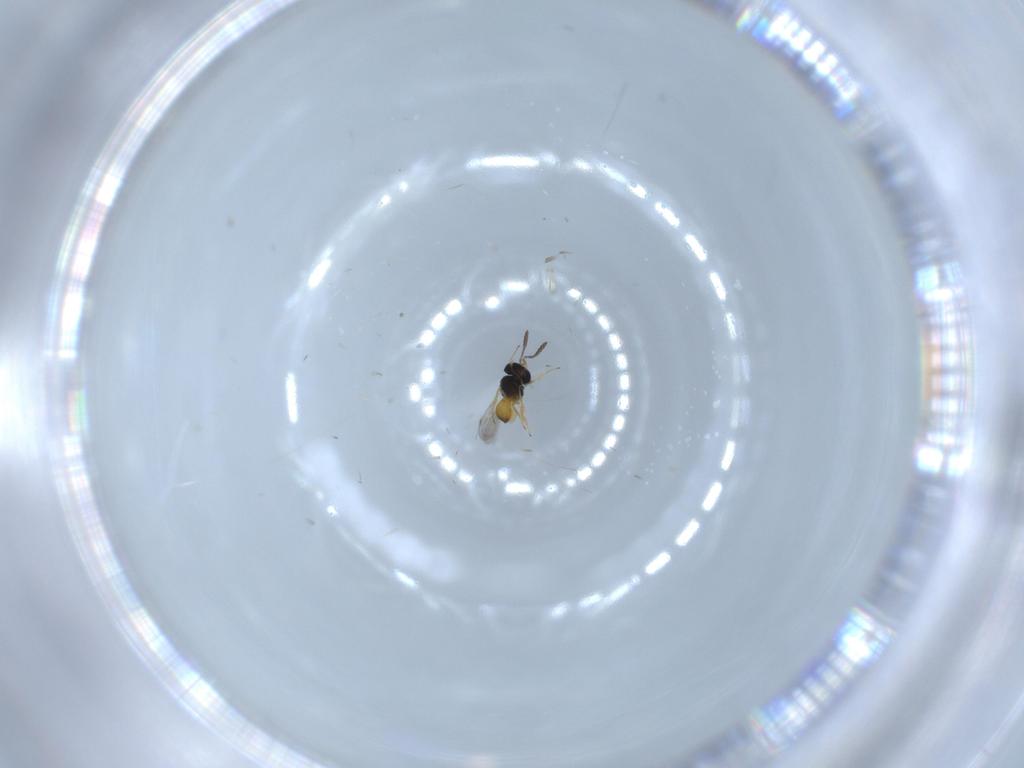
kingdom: Animalia
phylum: Arthropoda
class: Insecta
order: Hymenoptera
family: Scelionidae
